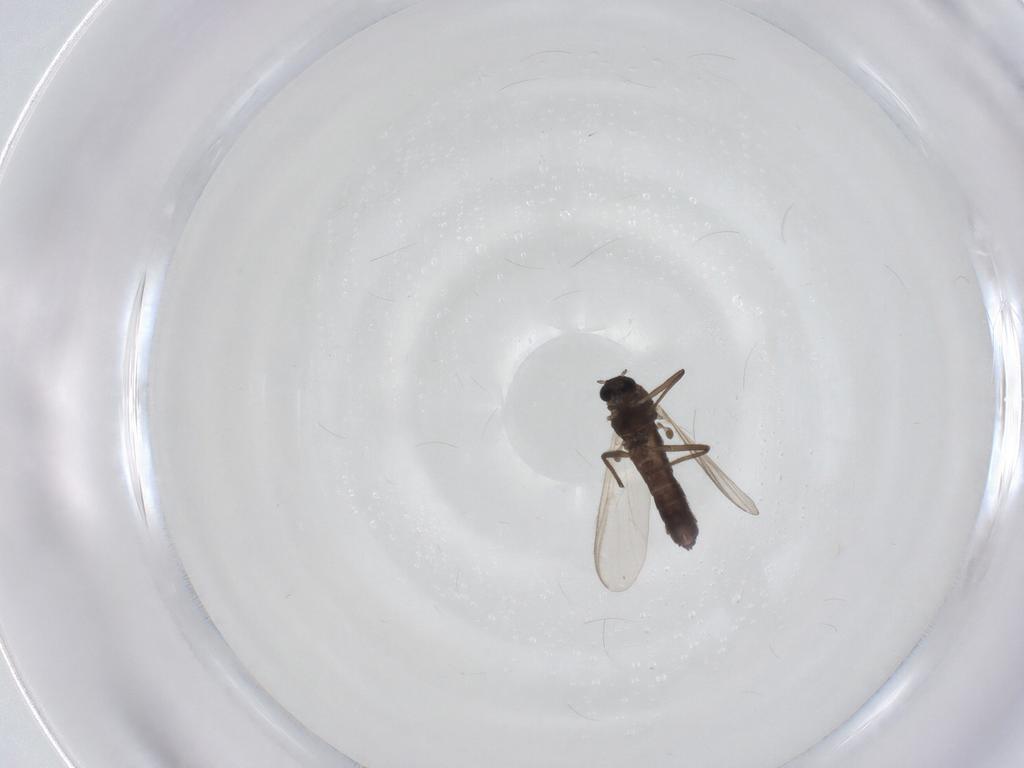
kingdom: Animalia
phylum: Arthropoda
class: Insecta
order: Diptera
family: Chironomidae
